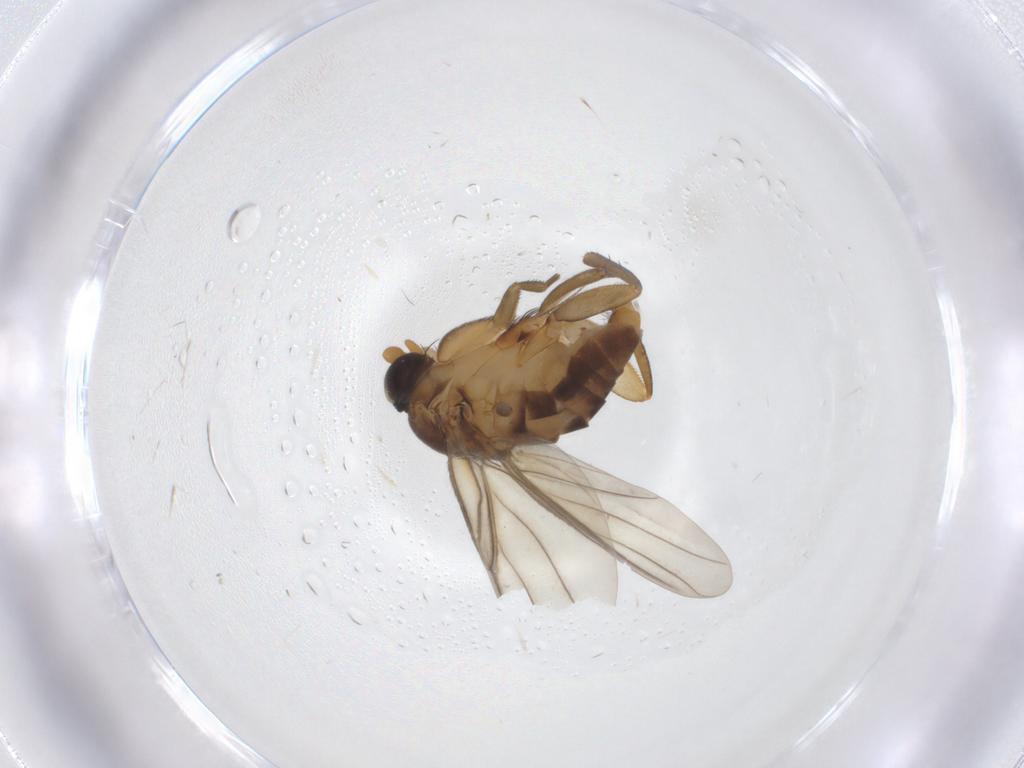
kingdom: Animalia
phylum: Arthropoda
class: Insecta
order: Diptera
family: Phoridae
